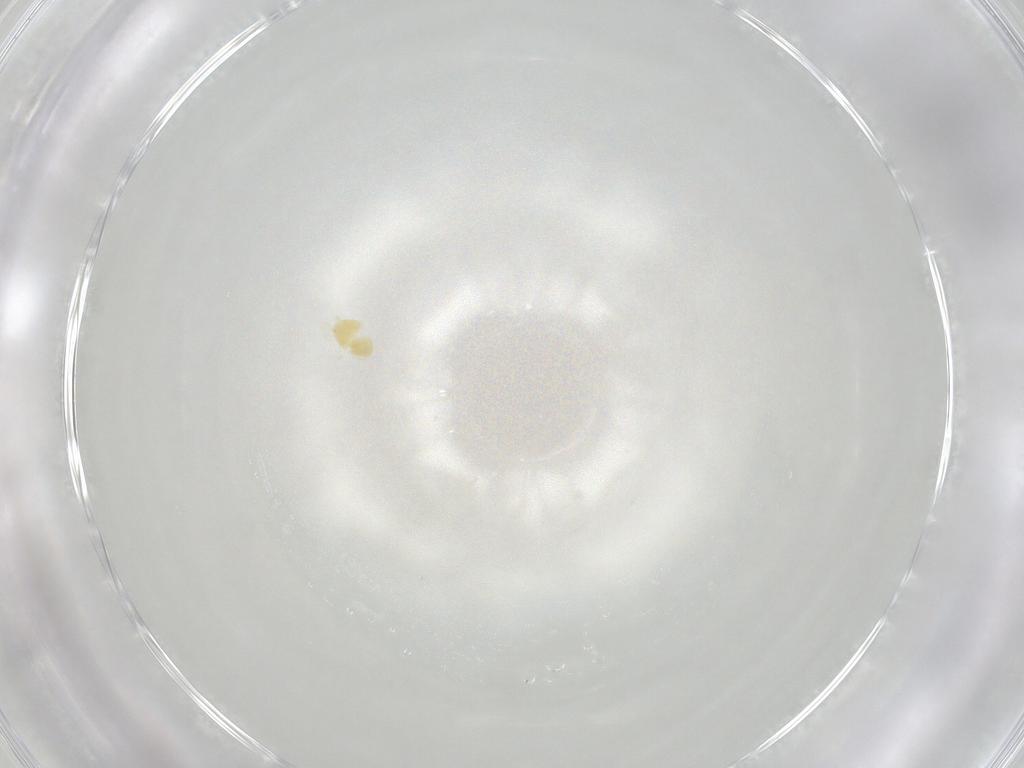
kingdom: Animalia
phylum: Arthropoda
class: Arachnida
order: Trombidiformes
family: Tetranychidae
